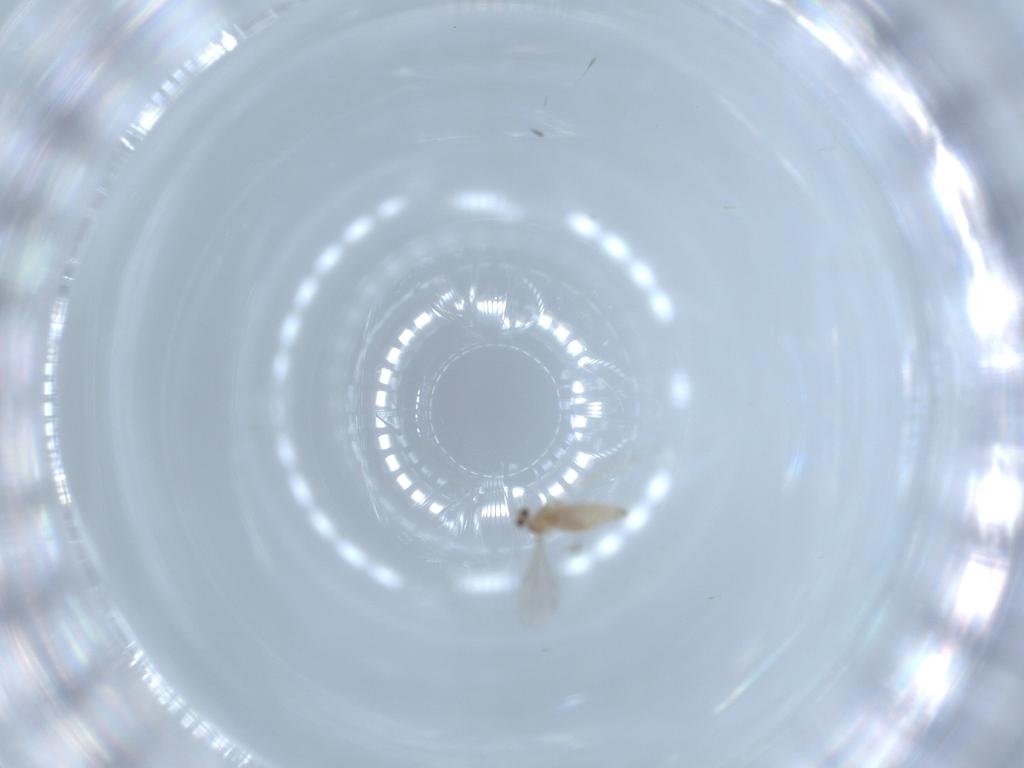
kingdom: Animalia
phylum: Arthropoda
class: Insecta
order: Diptera
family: Cecidomyiidae
